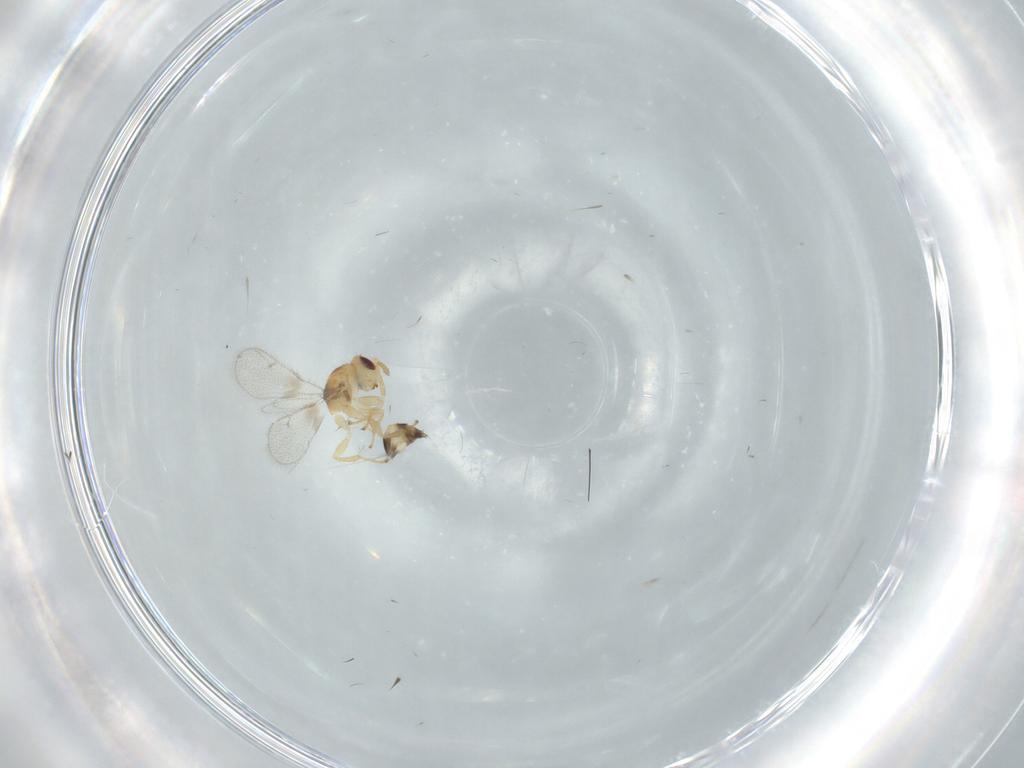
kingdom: Animalia
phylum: Arthropoda
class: Insecta
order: Hymenoptera
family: Torymidae
